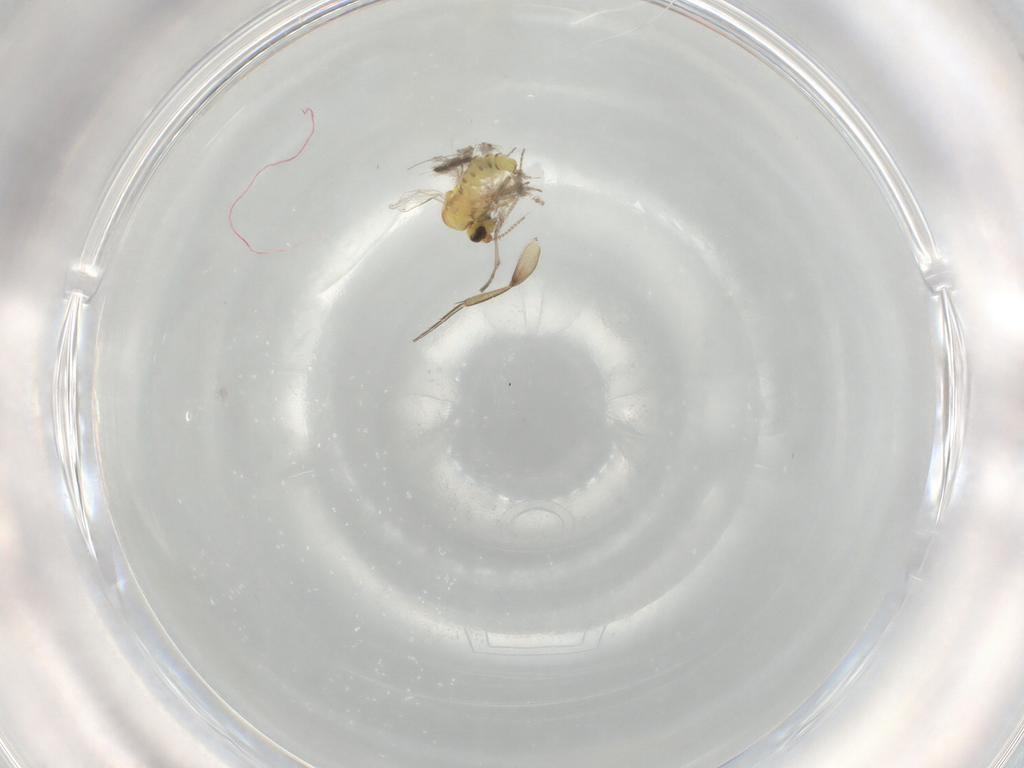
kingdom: Animalia
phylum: Arthropoda
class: Insecta
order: Diptera
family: Ceratopogonidae
